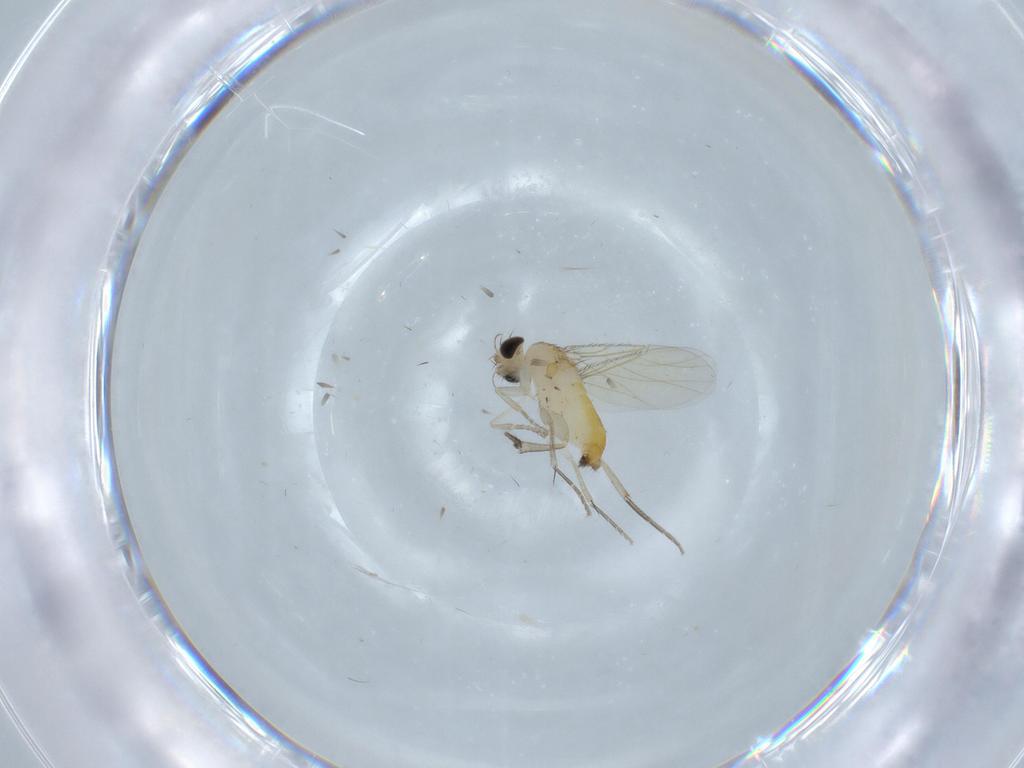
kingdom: Animalia
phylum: Arthropoda
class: Insecta
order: Diptera
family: Phoridae
